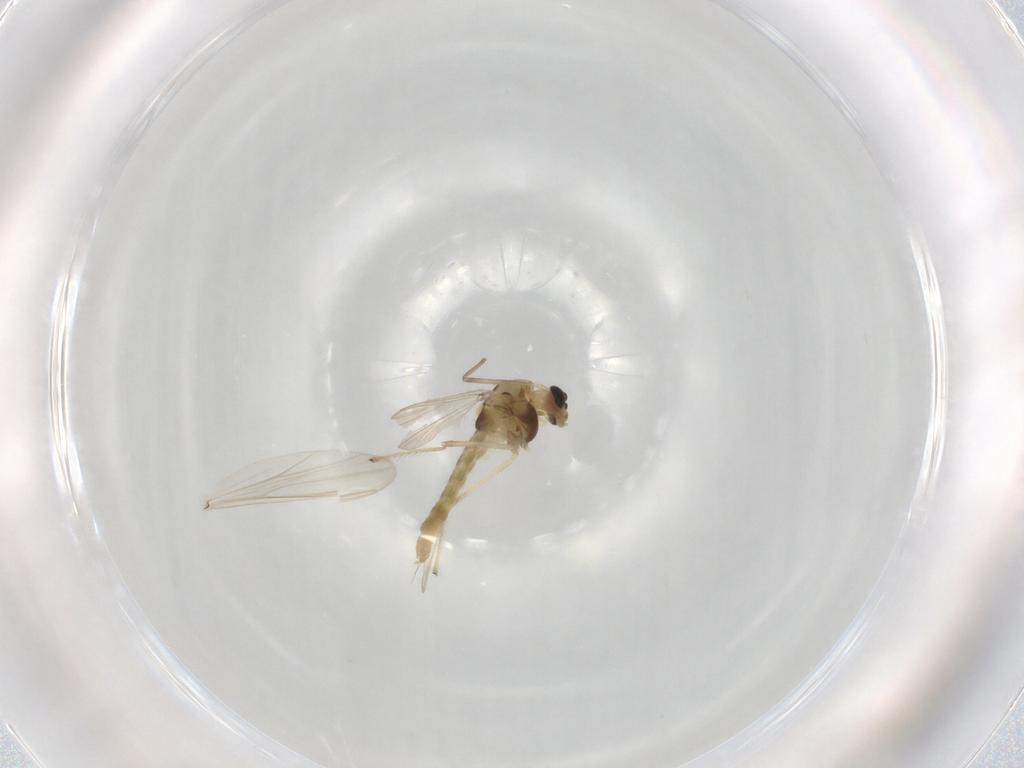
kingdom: Animalia
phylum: Arthropoda
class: Insecta
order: Diptera
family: Chironomidae
